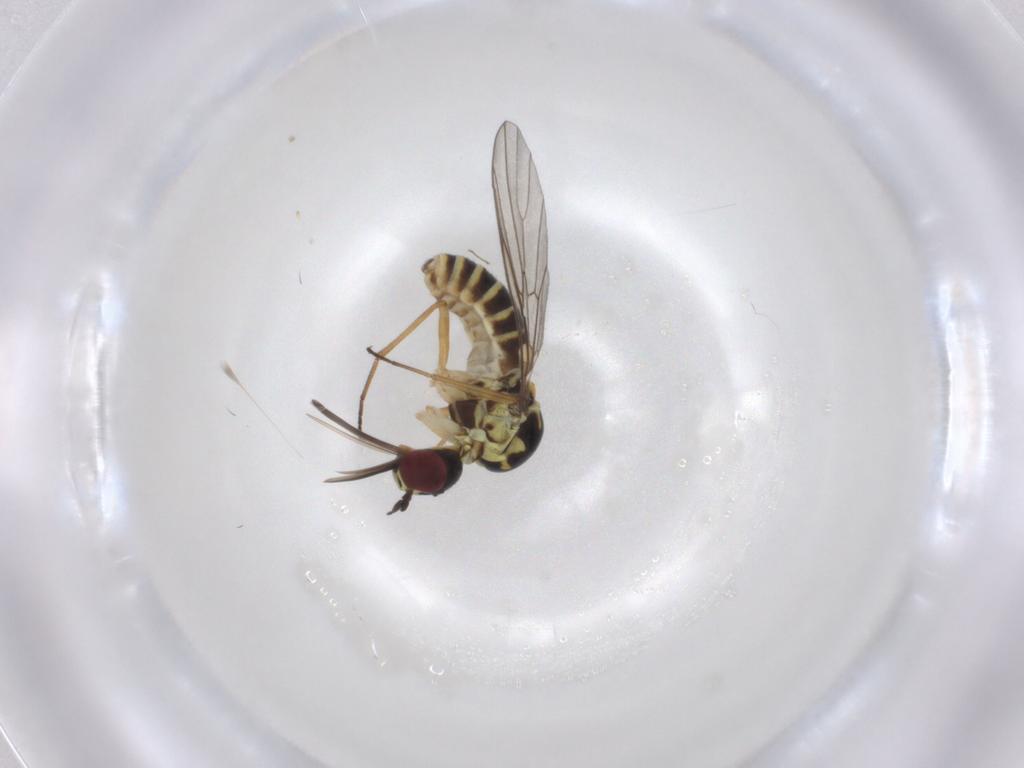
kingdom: Animalia
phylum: Arthropoda
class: Insecta
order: Diptera
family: Mythicomyiidae
